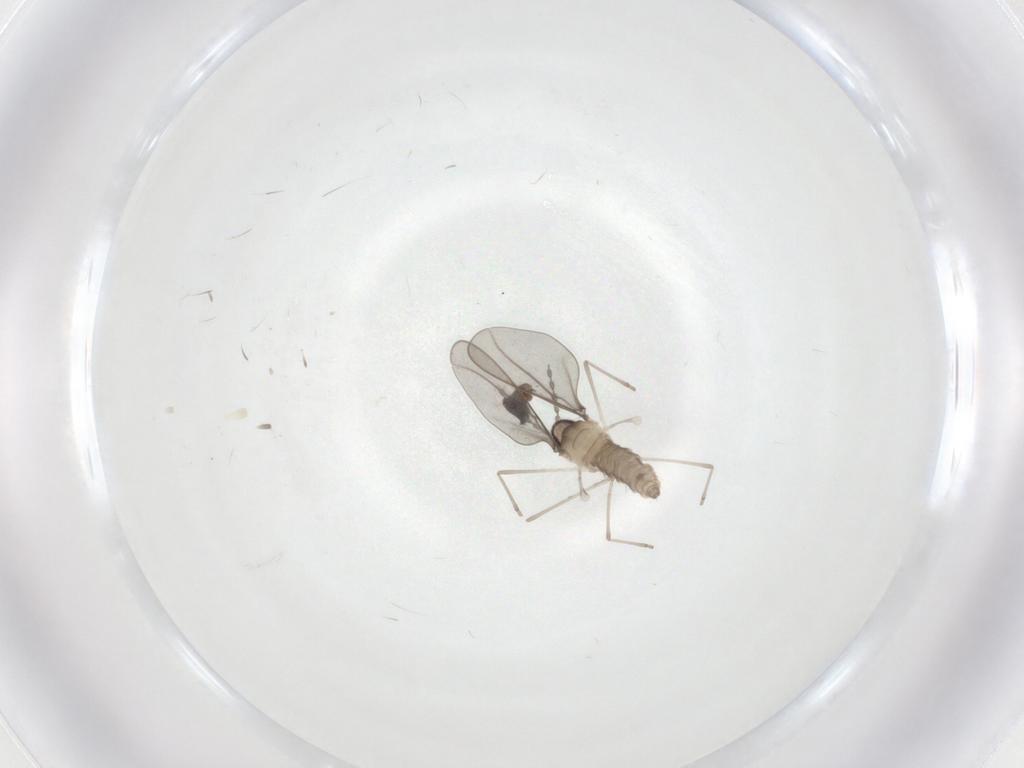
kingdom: Animalia
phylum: Arthropoda
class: Insecta
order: Diptera
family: Cecidomyiidae
